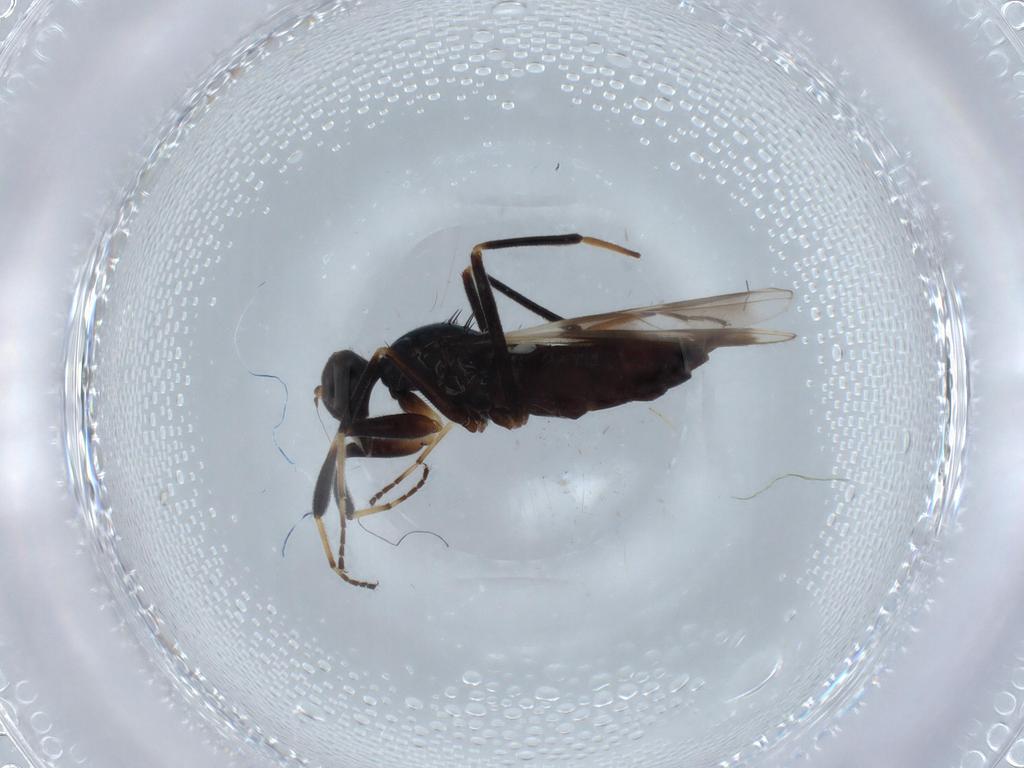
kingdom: Animalia
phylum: Arthropoda
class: Insecta
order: Diptera
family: Hybotidae
